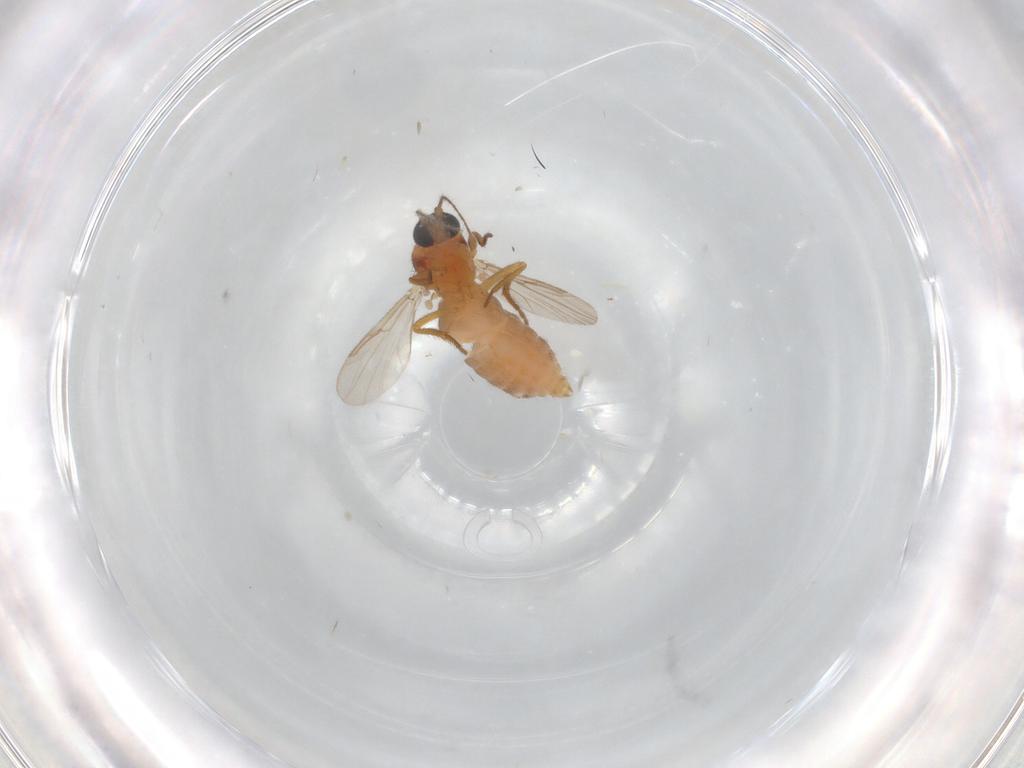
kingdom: Animalia
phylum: Arthropoda
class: Insecta
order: Diptera
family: Ceratopogonidae
